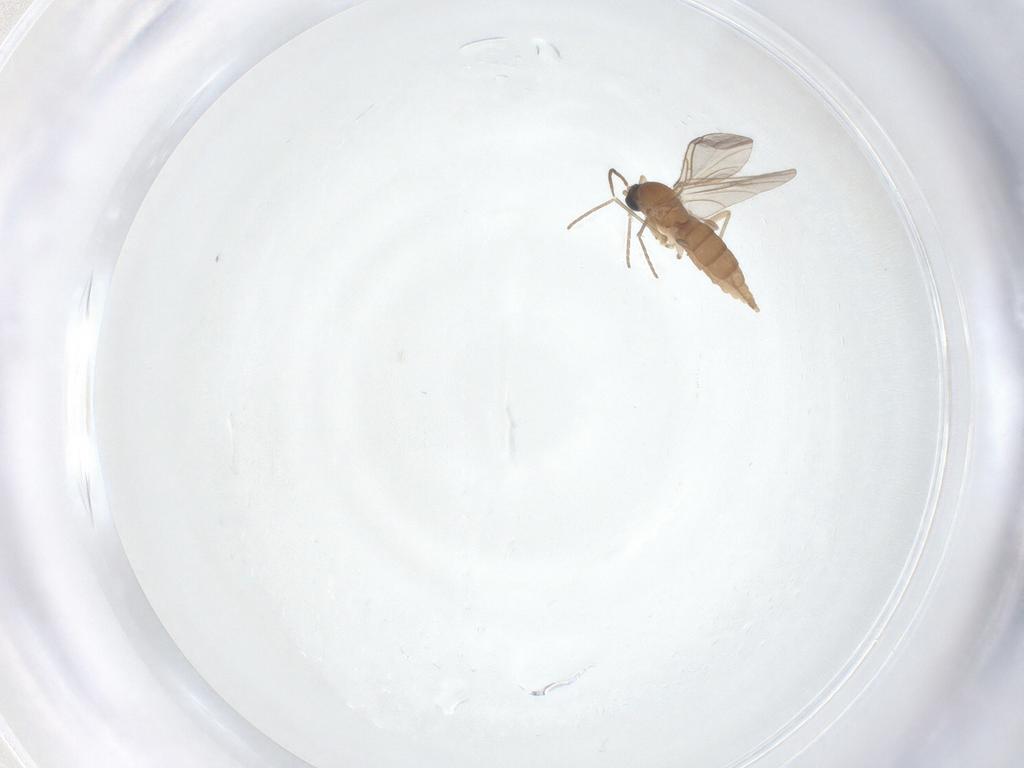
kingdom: Animalia
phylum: Arthropoda
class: Insecta
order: Diptera
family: Sciaridae
